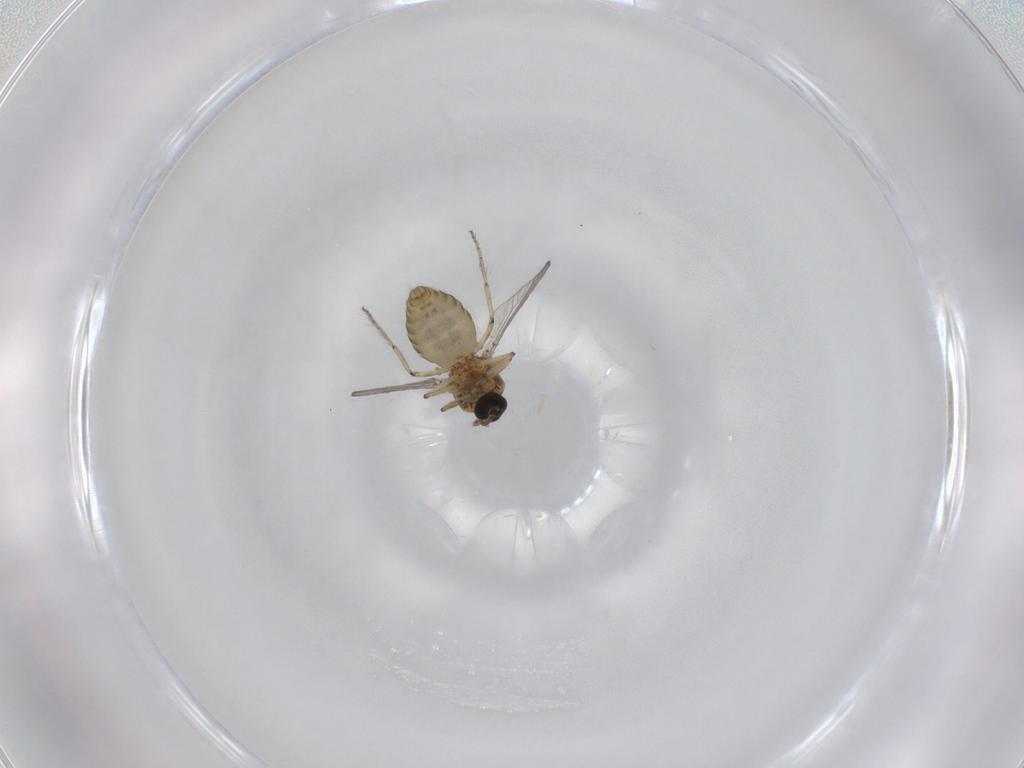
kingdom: Animalia
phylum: Arthropoda
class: Insecta
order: Diptera
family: Ceratopogonidae
